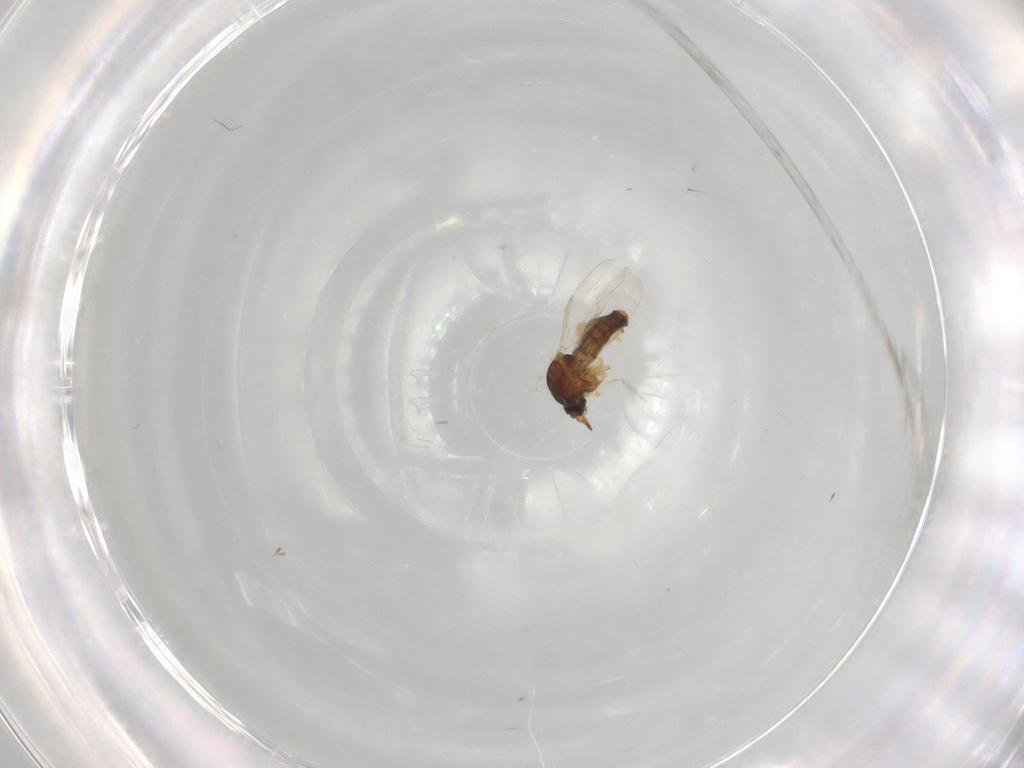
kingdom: Animalia
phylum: Arthropoda
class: Insecta
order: Diptera
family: Ceratopogonidae
